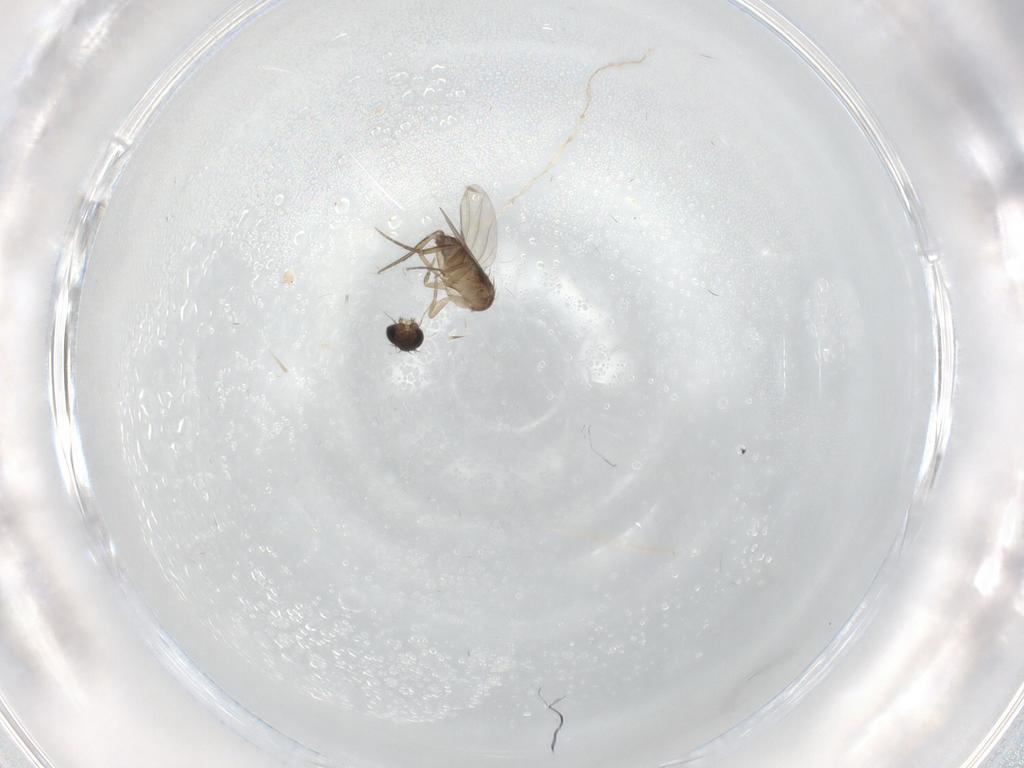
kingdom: Animalia
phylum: Arthropoda
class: Insecta
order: Diptera
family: Phoridae
